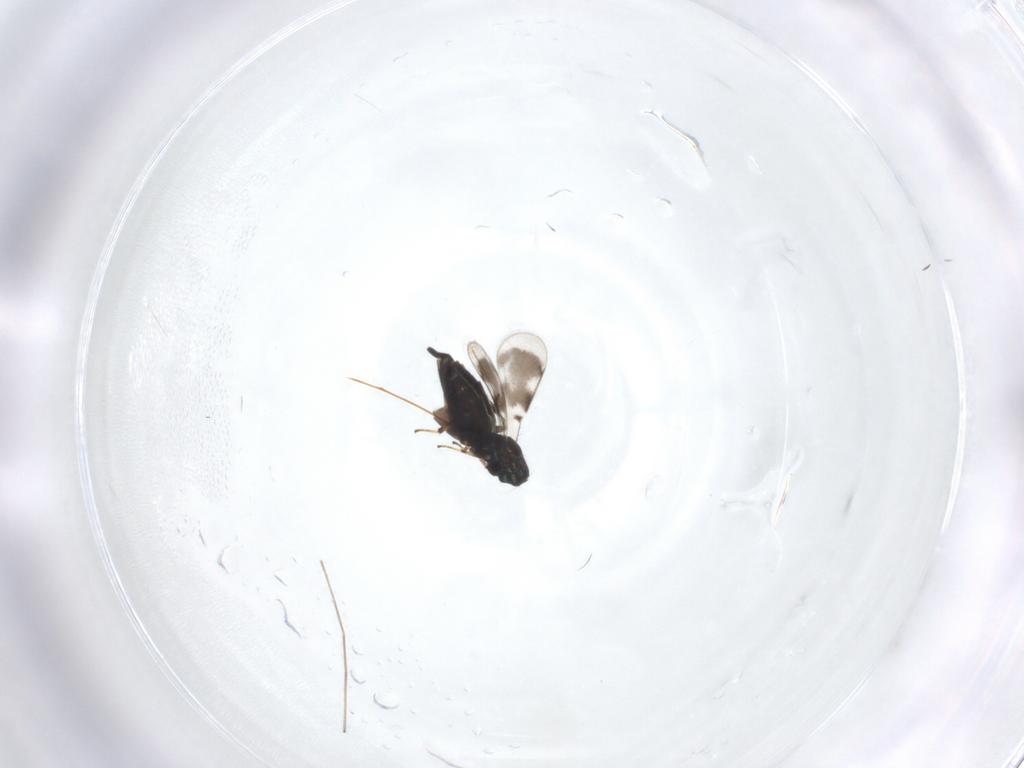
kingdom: Animalia
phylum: Arthropoda
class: Insecta
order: Hymenoptera
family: Eulophidae
